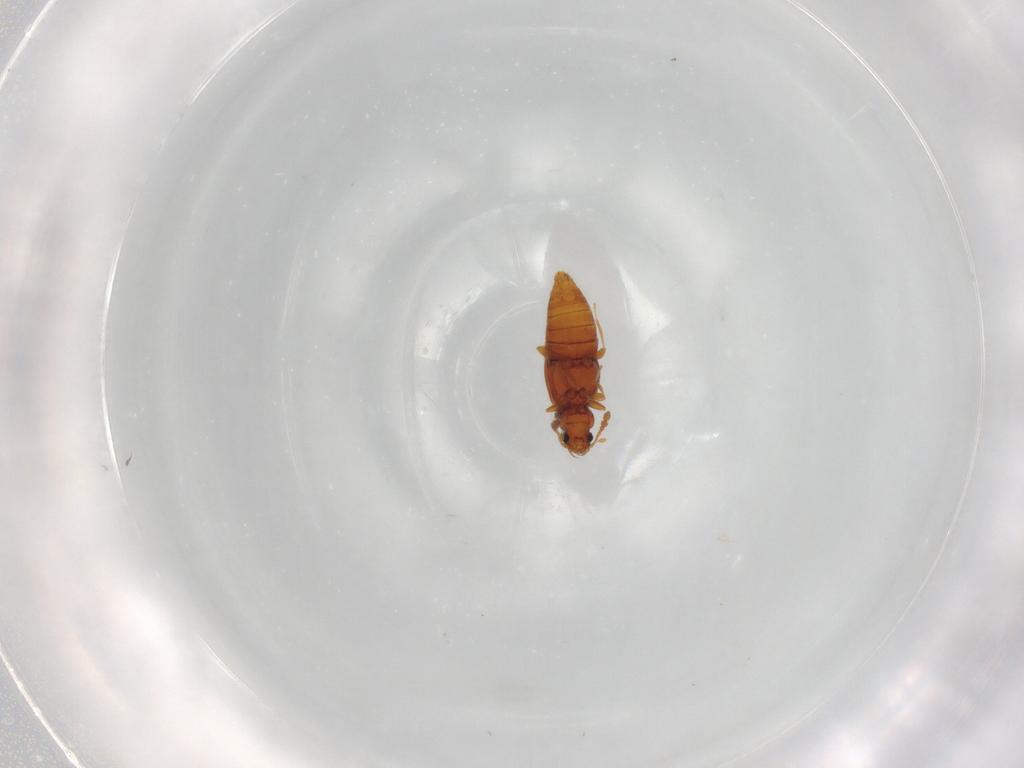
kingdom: Animalia
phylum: Arthropoda
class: Insecta
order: Coleoptera
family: Staphylinidae
